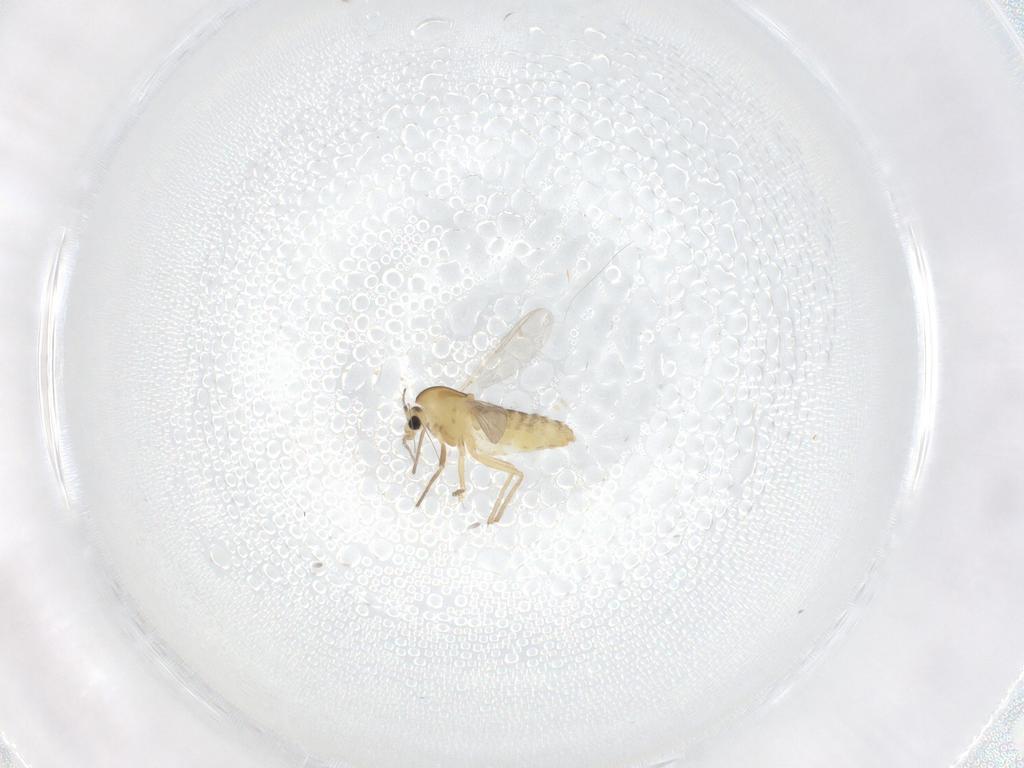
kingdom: Animalia
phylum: Arthropoda
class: Insecta
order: Diptera
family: Chironomidae
